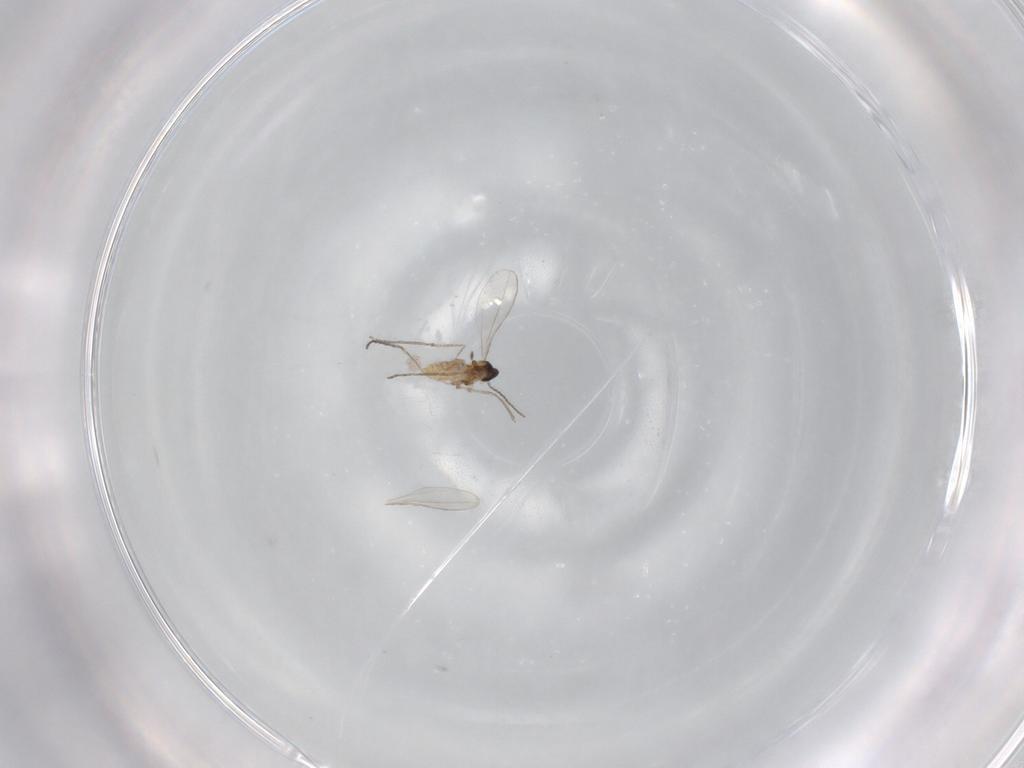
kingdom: Animalia
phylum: Arthropoda
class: Insecta
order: Diptera
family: Cecidomyiidae
